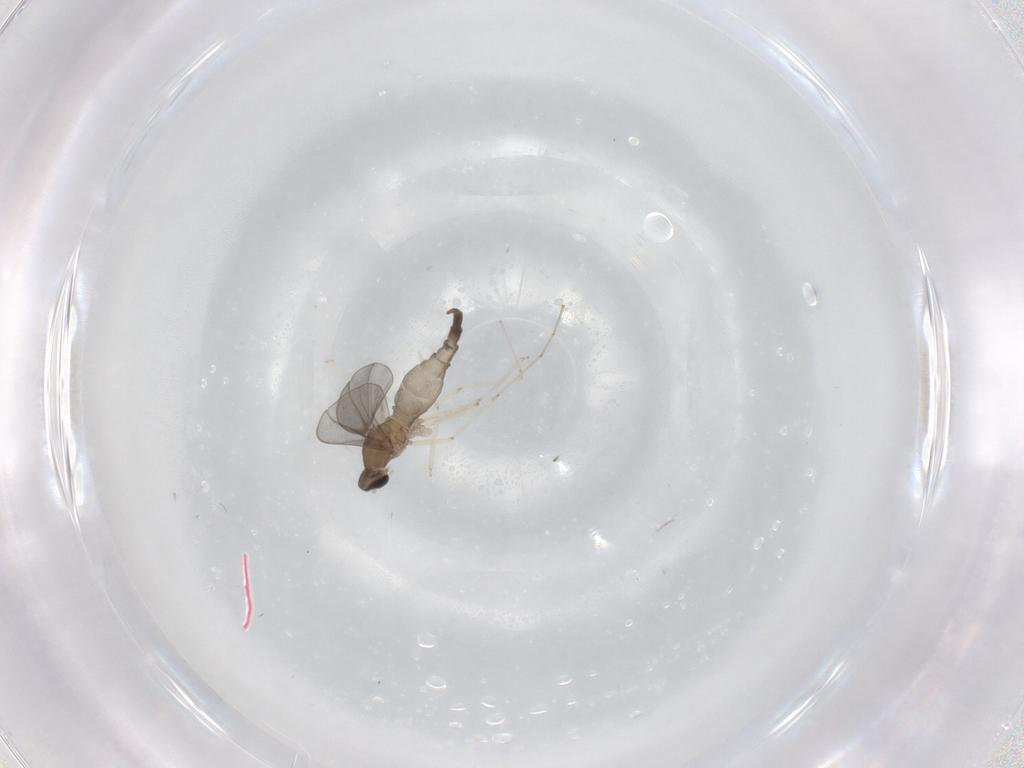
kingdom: Animalia
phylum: Arthropoda
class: Insecta
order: Diptera
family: Cecidomyiidae
